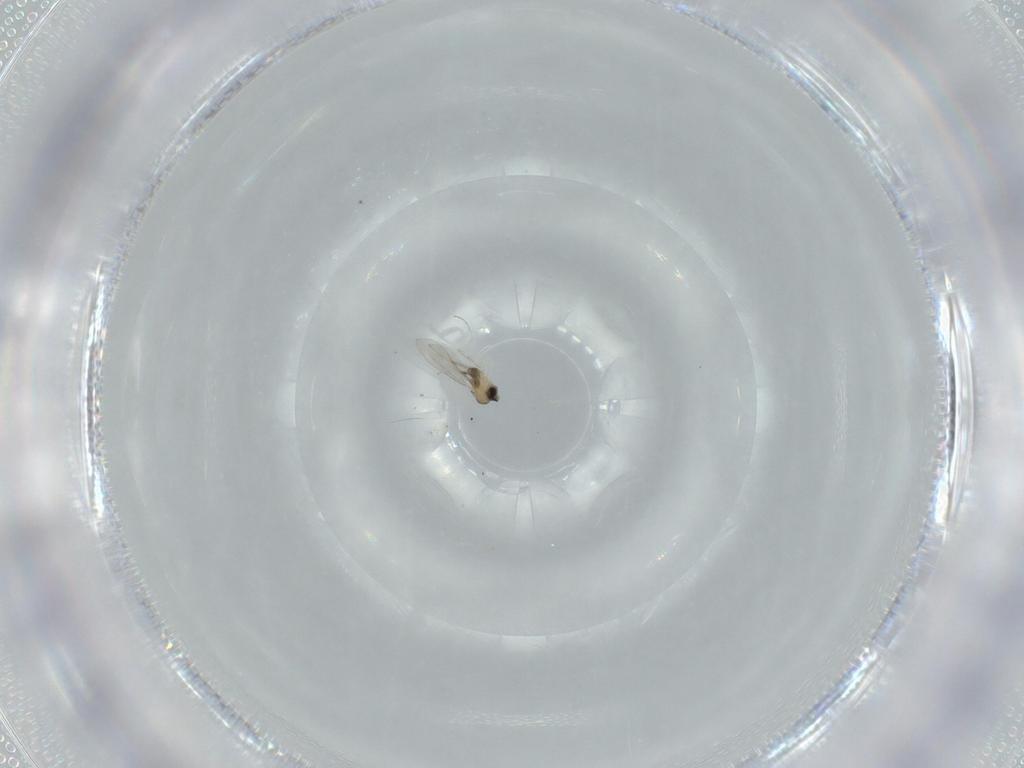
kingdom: Animalia
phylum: Arthropoda
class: Insecta
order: Diptera
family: Cecidomyiidae
